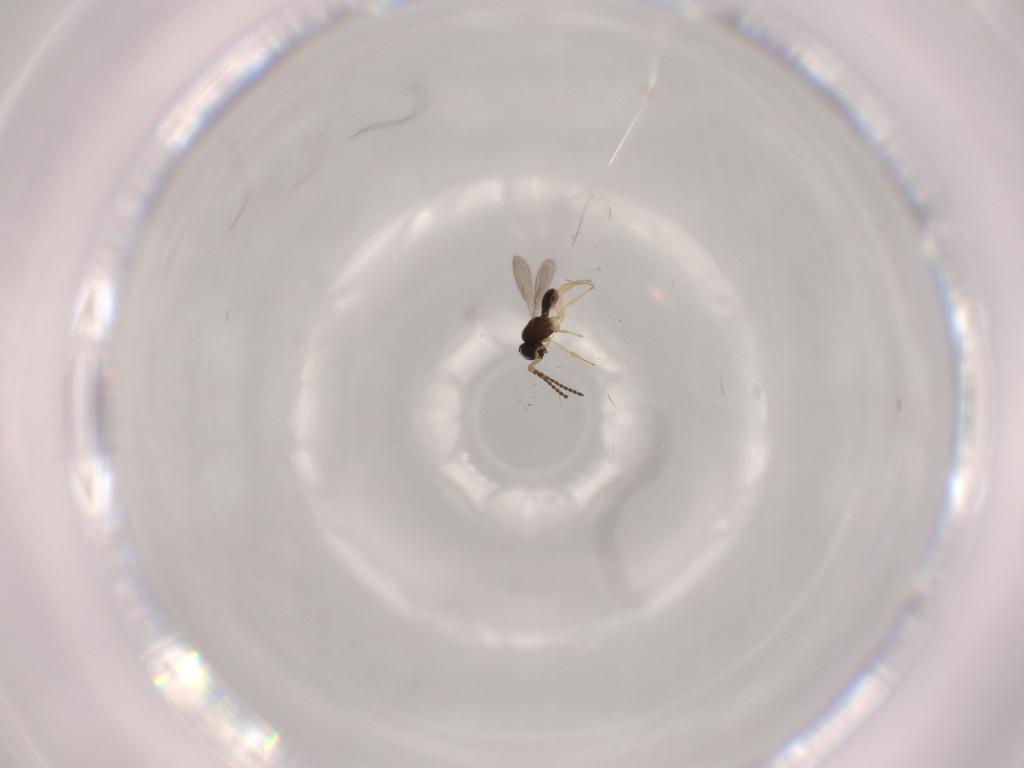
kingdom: Animalia
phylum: Arthropoda
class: Insecta
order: Hymenoptera
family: Scelionidae
